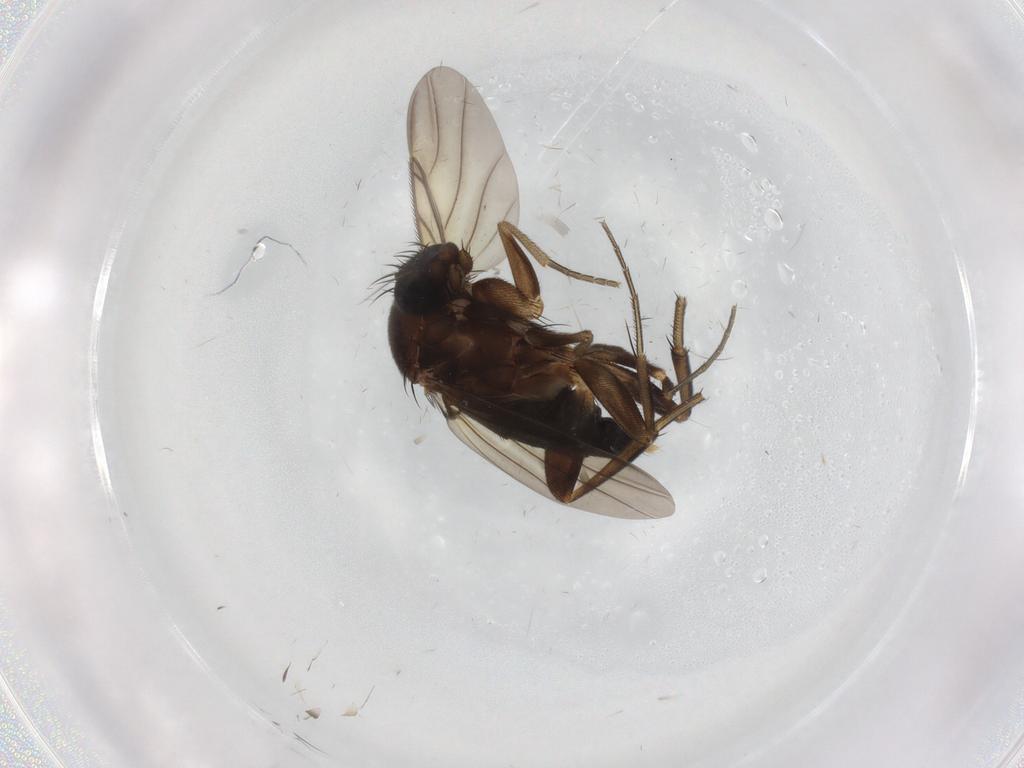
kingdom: Animalia
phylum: Arthropoda
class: Insecta
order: Diptera
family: Phoridae
